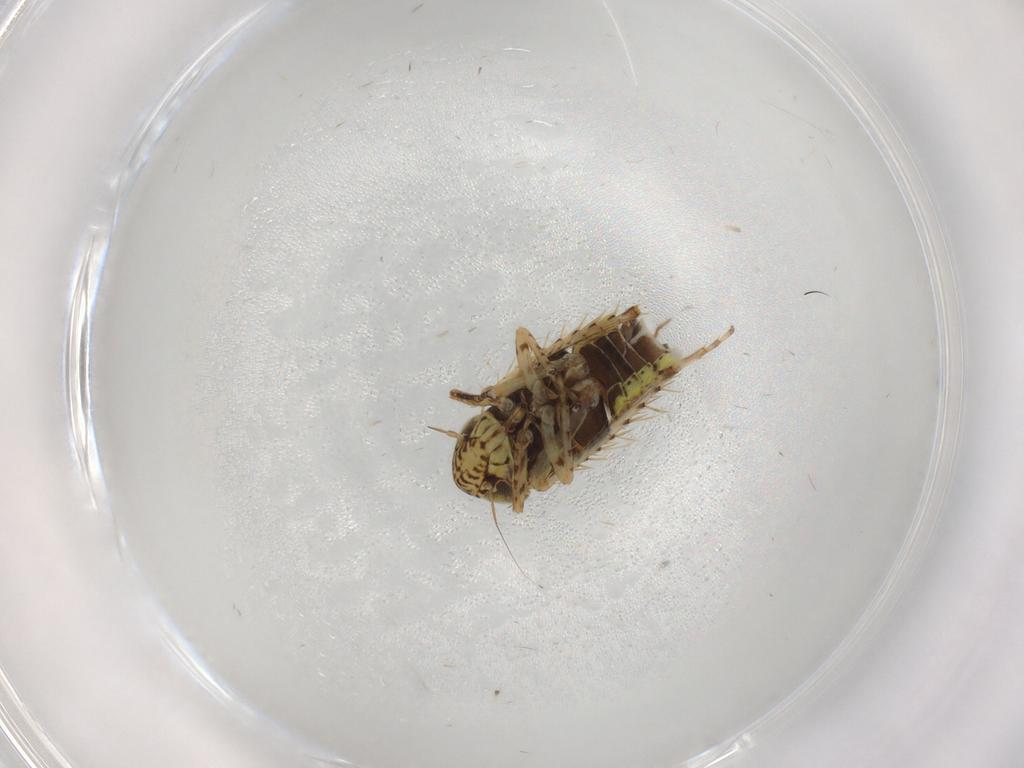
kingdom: Animalia
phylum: Arthropoda
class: Insecta
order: Hemiptera
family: Cicadellidae
